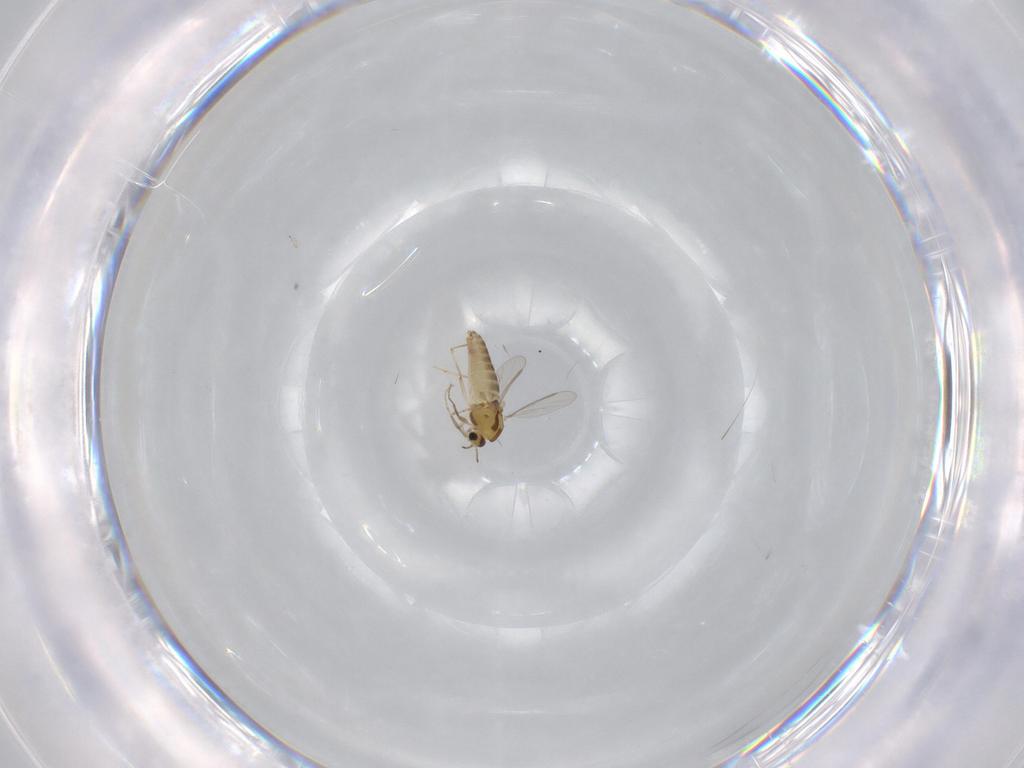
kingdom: Animalia
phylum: Arthropoda
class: Insecta
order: Diptera
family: Chironomidae
